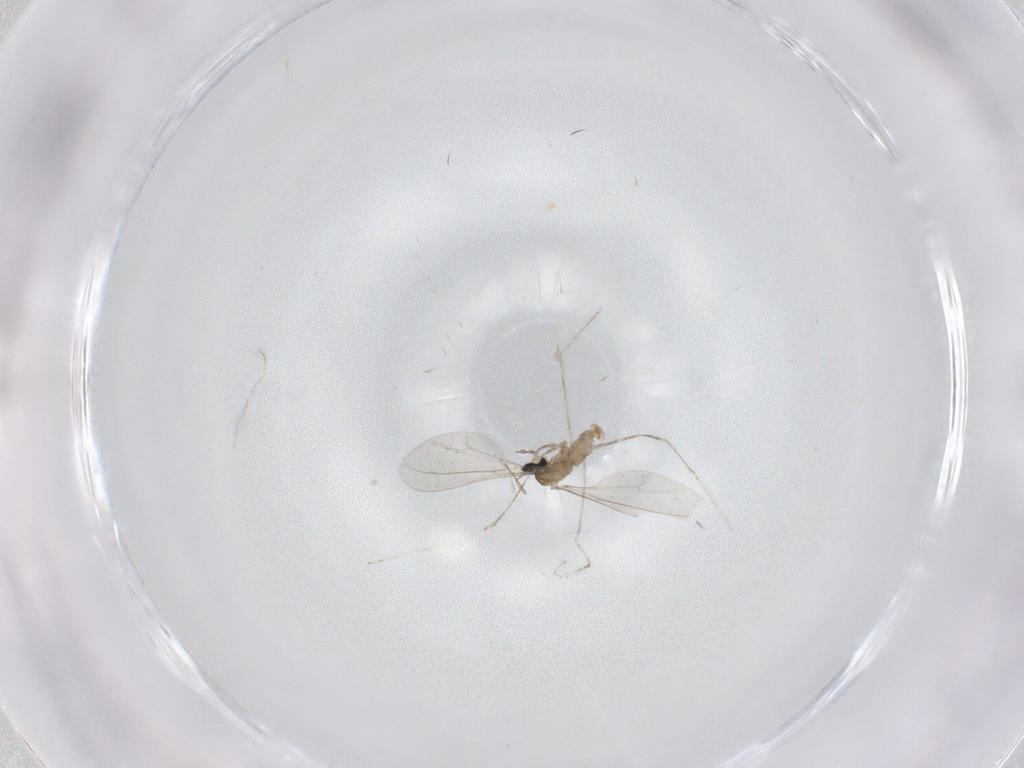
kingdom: Animalia
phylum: Arthropoda
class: Insecta
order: Diptera
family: Cecidomyiidae
